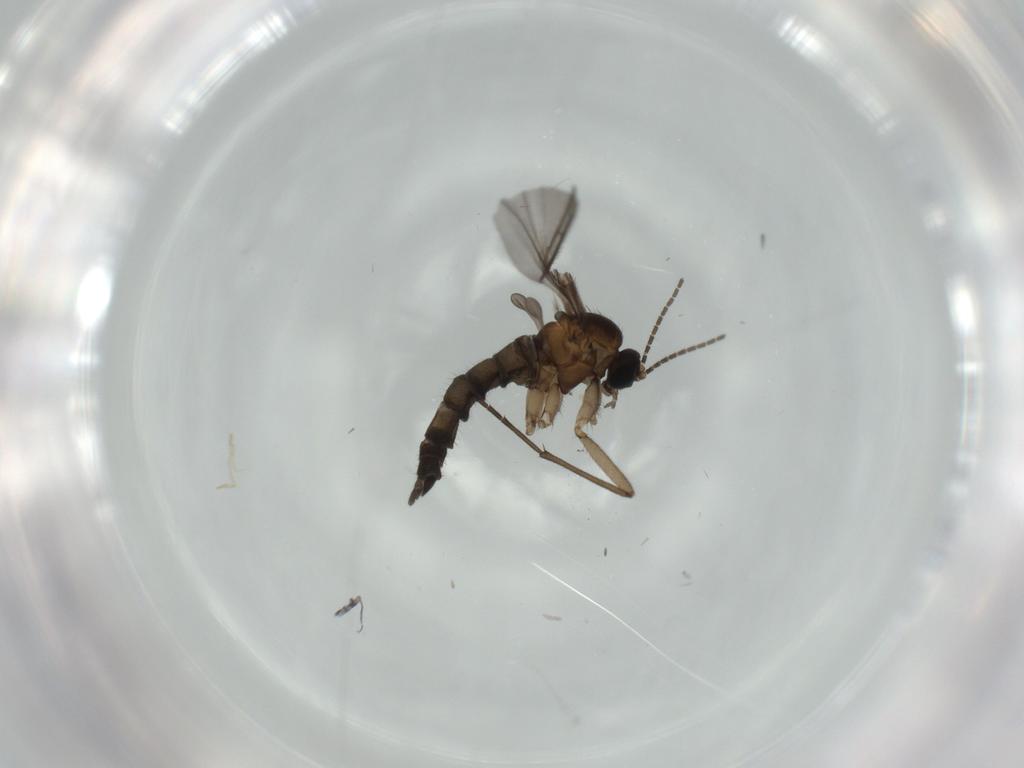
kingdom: Animalia
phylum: Arthropoda
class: Insecta
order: Diptera
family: Sciaridae
